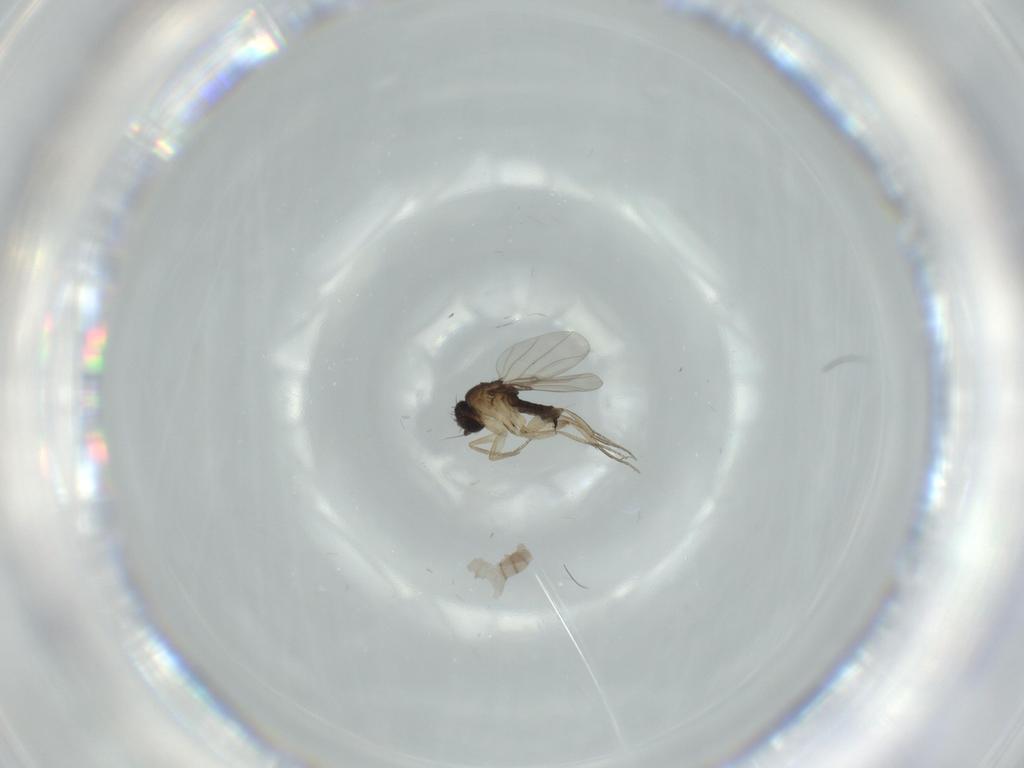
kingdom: Animalia
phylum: Arthropoda
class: Insecta
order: Diptera
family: Phoridae
